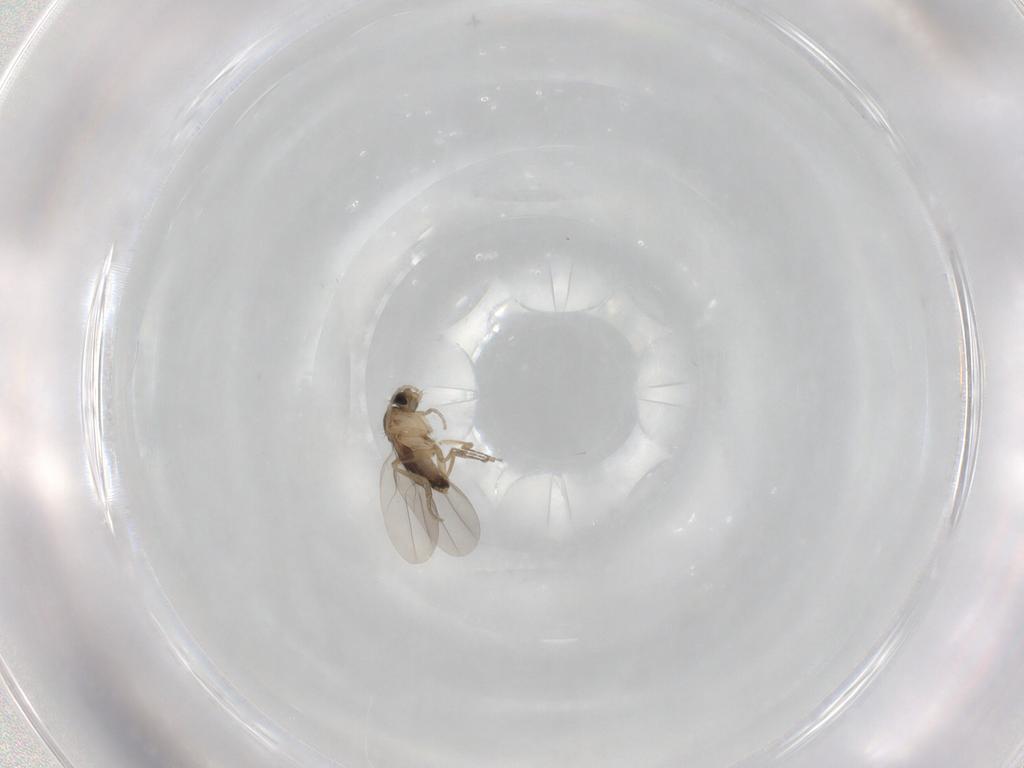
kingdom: Animalia
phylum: Arthropoda
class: Insecta
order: Diptera
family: Phoridae
